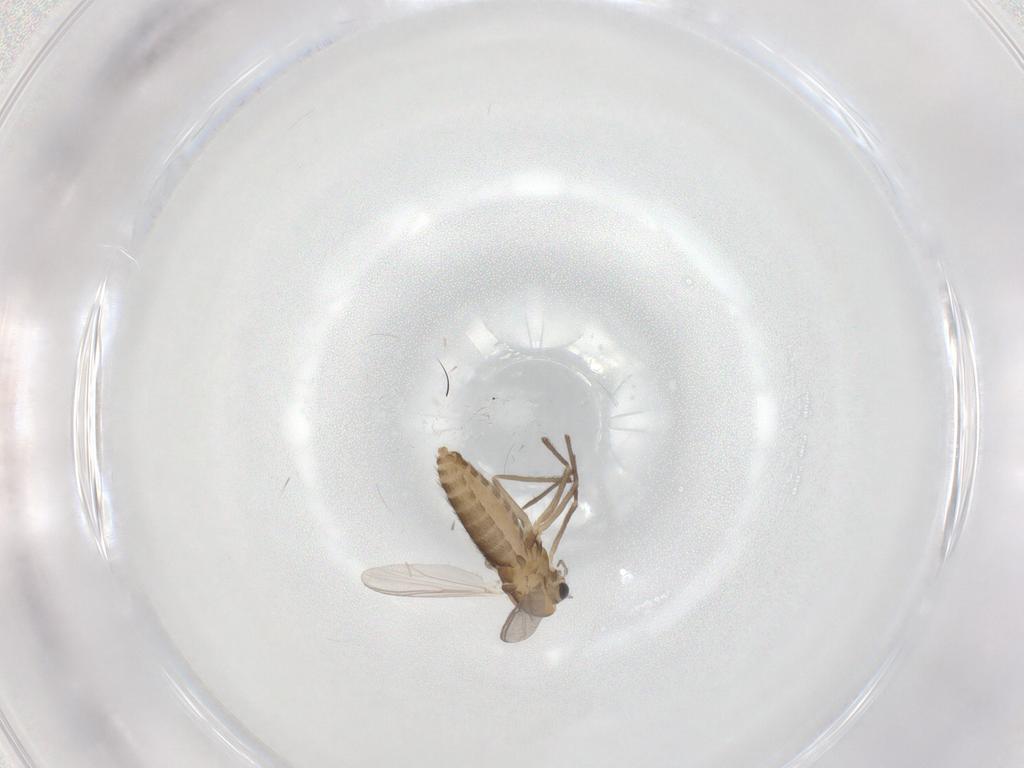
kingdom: Animalia
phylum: Arthropoda
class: Insecta
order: Diptera
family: Chironomidae
